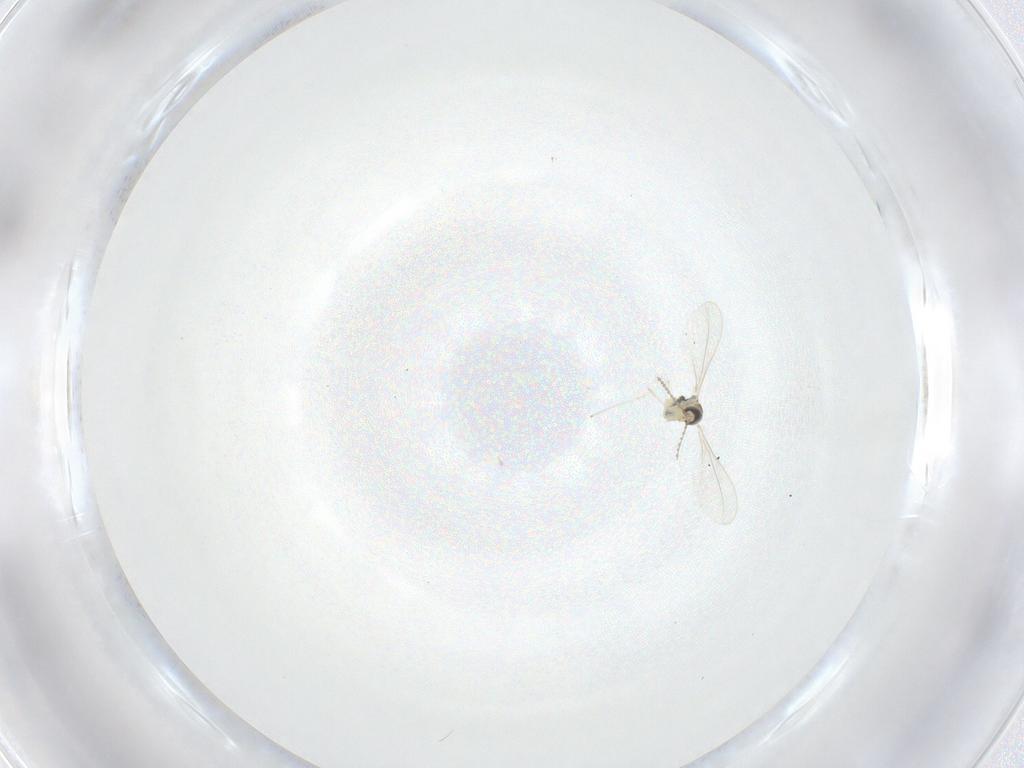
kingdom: Animalia
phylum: Arthropoda
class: Insecta
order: Diptera
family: Cecidomyiidae
